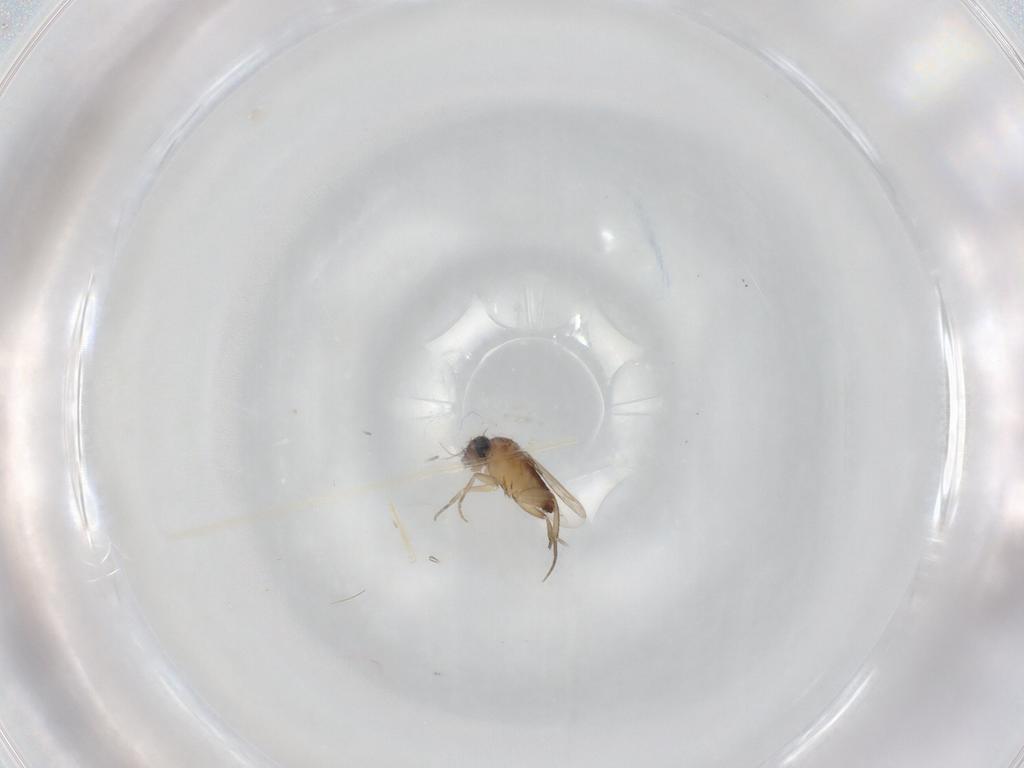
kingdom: Animalia
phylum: Arthropoda
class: Insecta
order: Diptera
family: Phoridae
